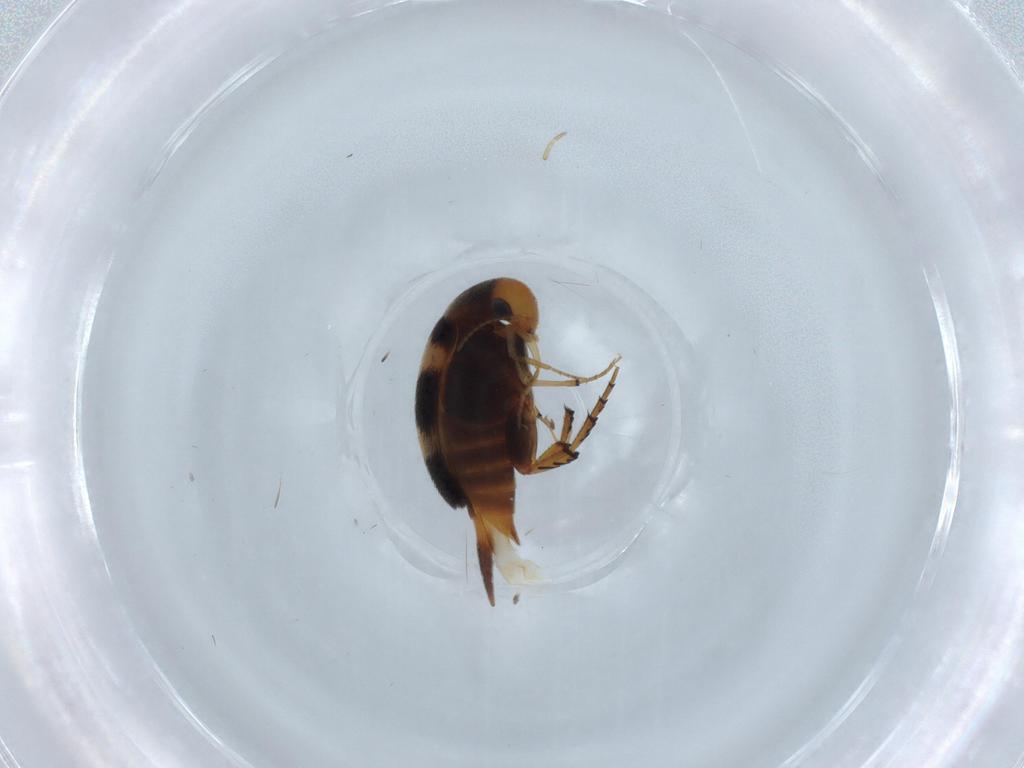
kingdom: Animalia
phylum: Arthropoda
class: Insecta
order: Coleoptera
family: Mordellidae
